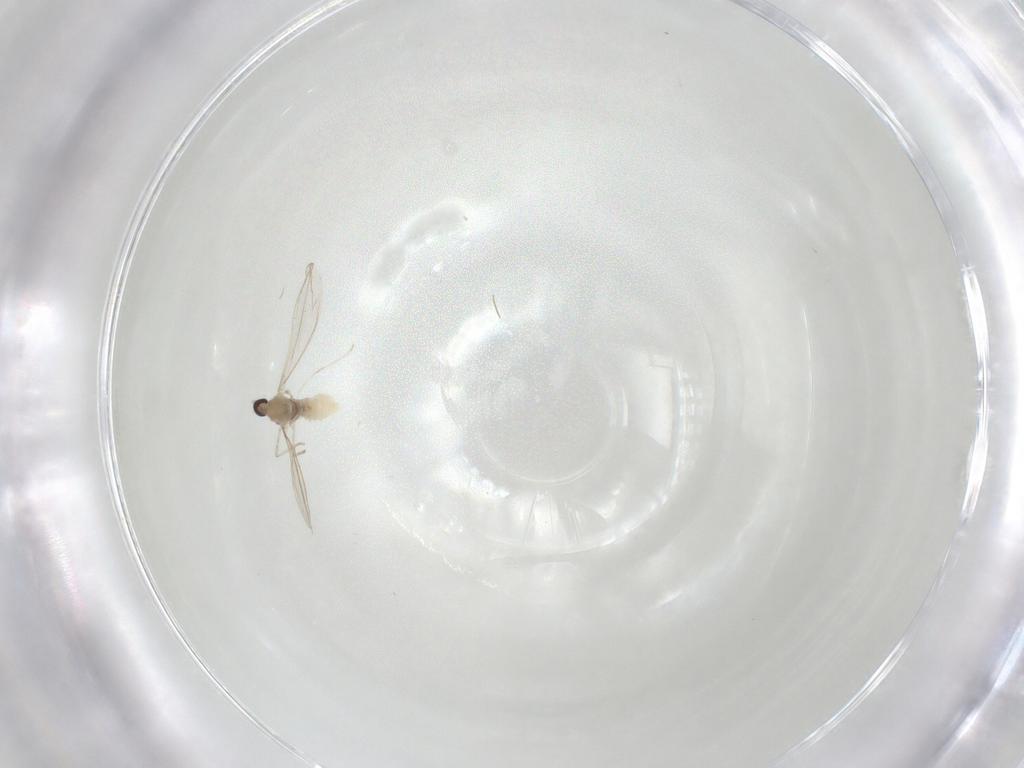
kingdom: Animalia
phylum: Arthropoda
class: Insecta
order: Diptera
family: Cecidomyiidae
